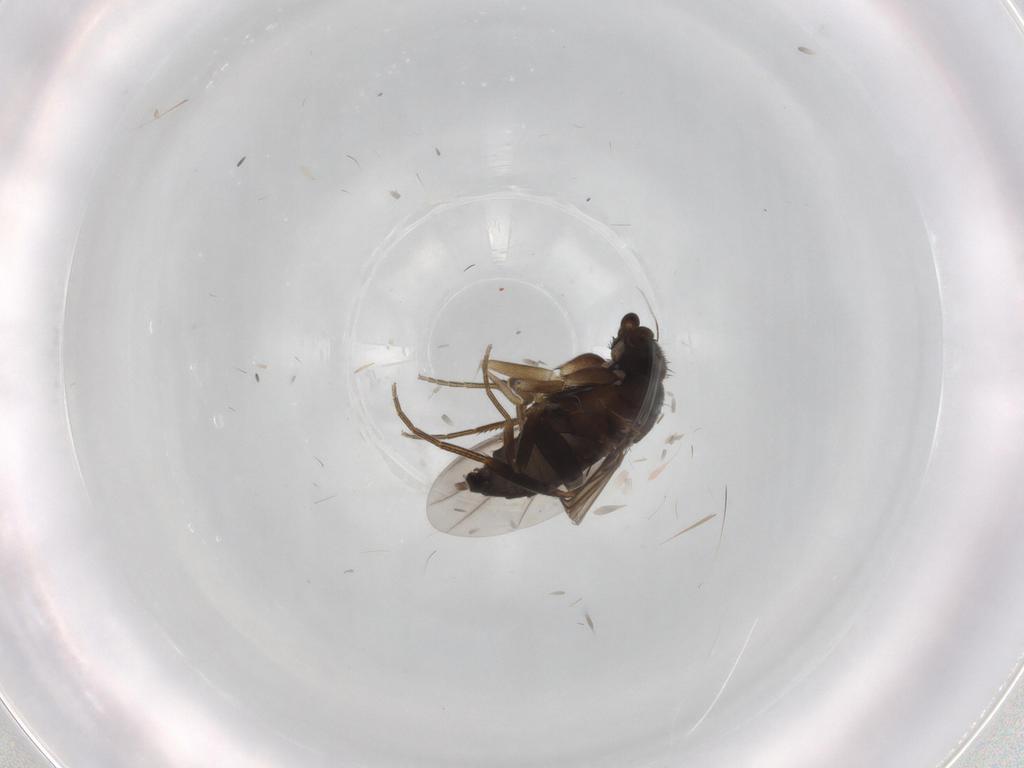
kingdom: Animalia
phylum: Arthropoda
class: Insecta
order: Diptera
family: Cecidomyiidae
